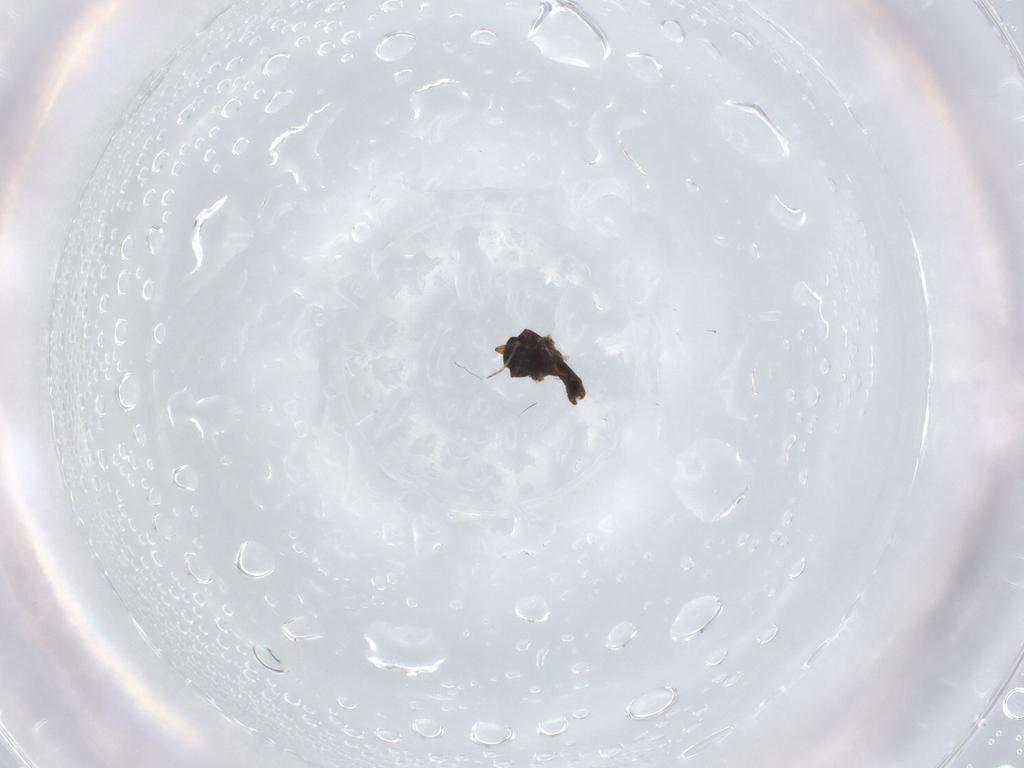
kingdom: Animalia
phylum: Arthropoda
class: Insecta
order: Diptera
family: Ceratopogonidae
